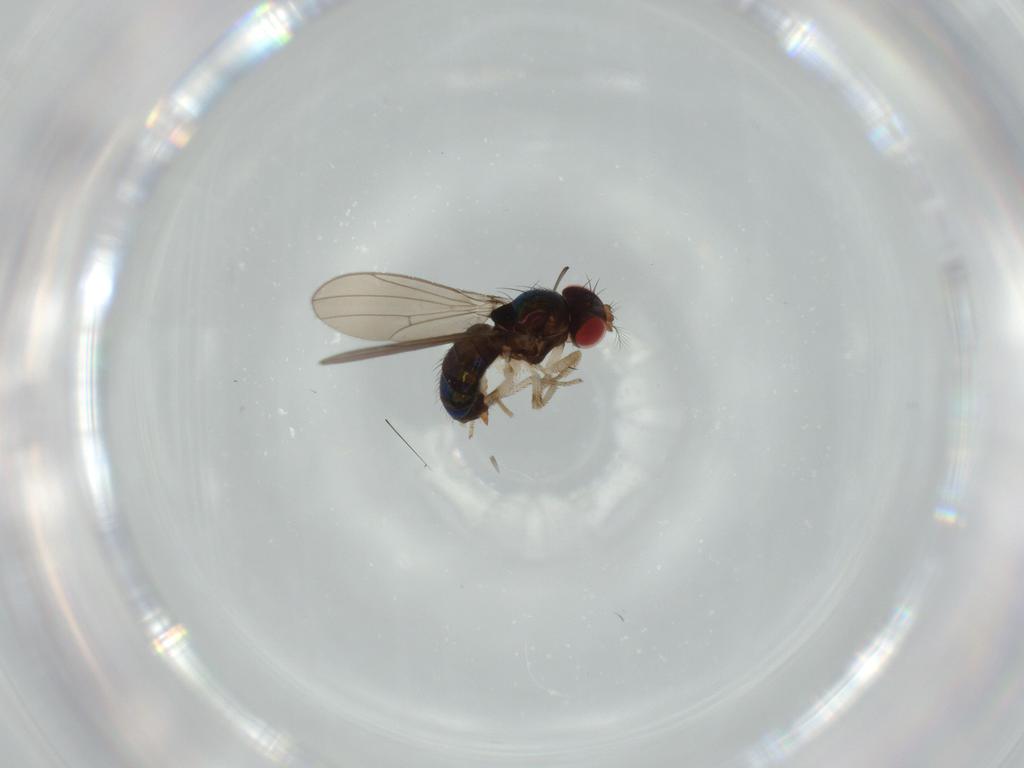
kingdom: Animalia
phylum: Arthropoda
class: Insecta
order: Diptera
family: Drosophilidae
